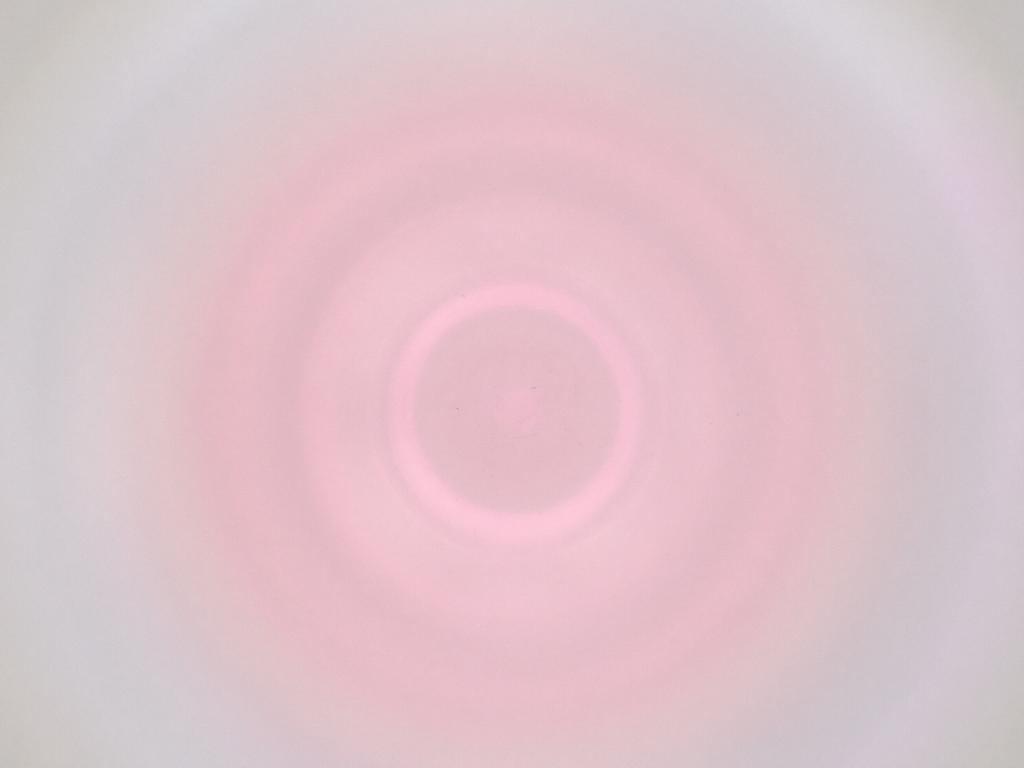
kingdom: Animalia
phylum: Arthropoda
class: Insecta
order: Diptera
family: Cecidomyiidae
